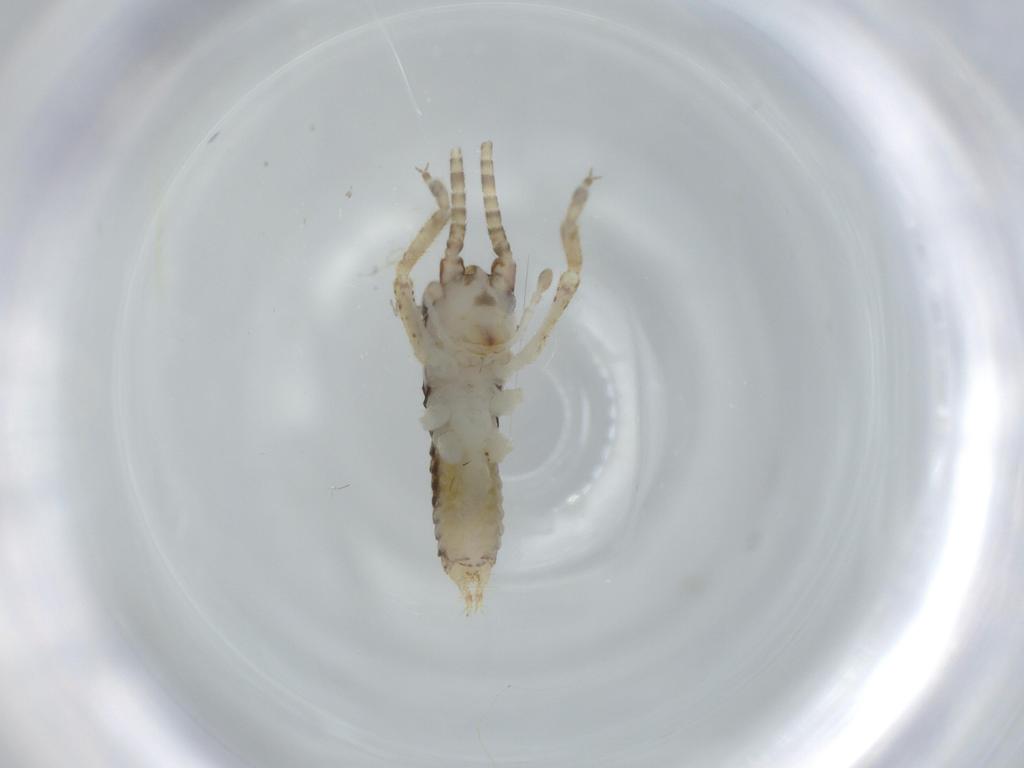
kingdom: Animalia
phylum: Arthropoda
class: Insecta
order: Orthoptera
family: Gryllidae
